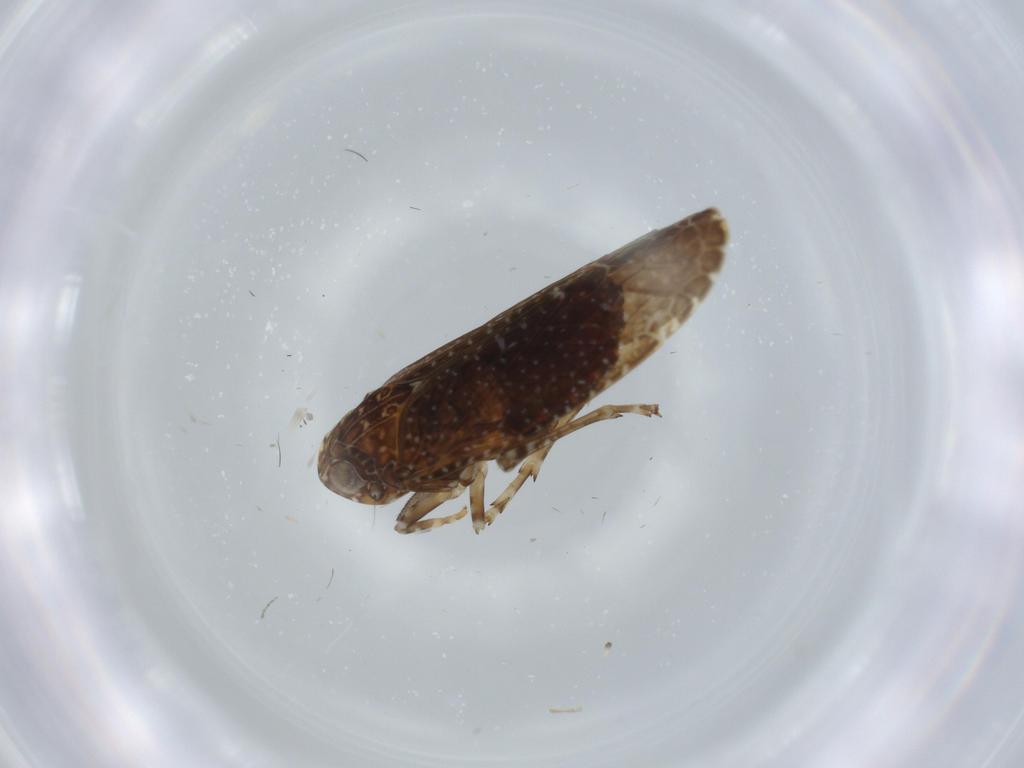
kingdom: Animalia
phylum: Arthropoda
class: Insecta
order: Hemiptera
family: Achilidae
